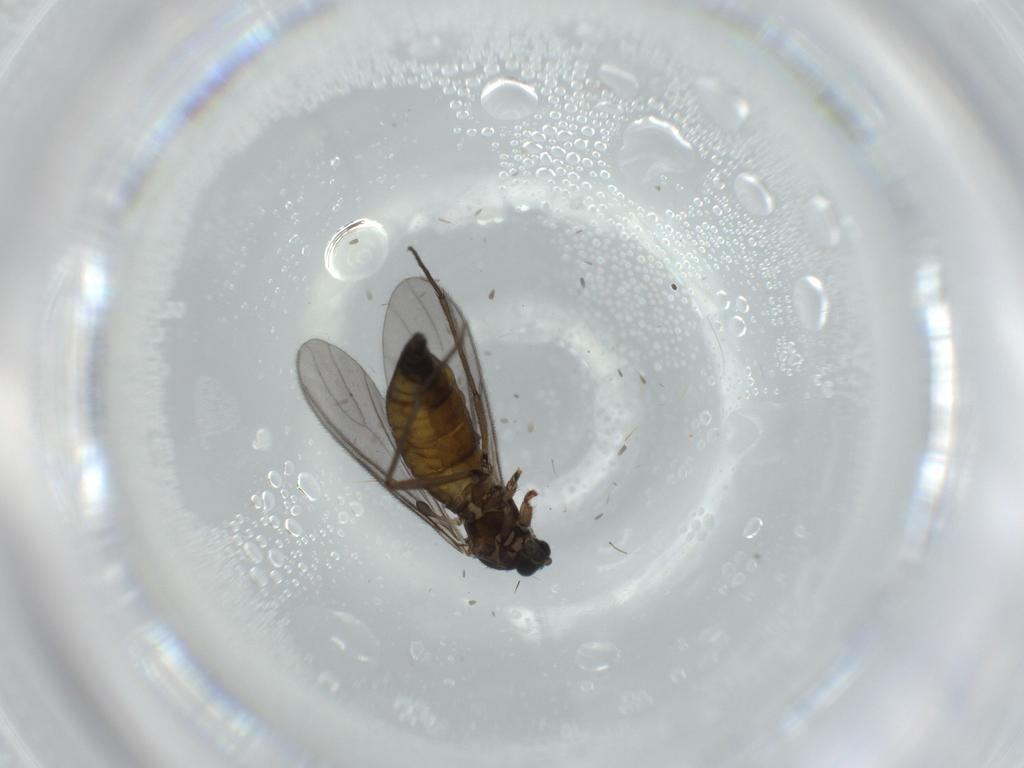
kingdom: Animalia
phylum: Arthropoda
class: Insecta
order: Diptera
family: Sciaridae
